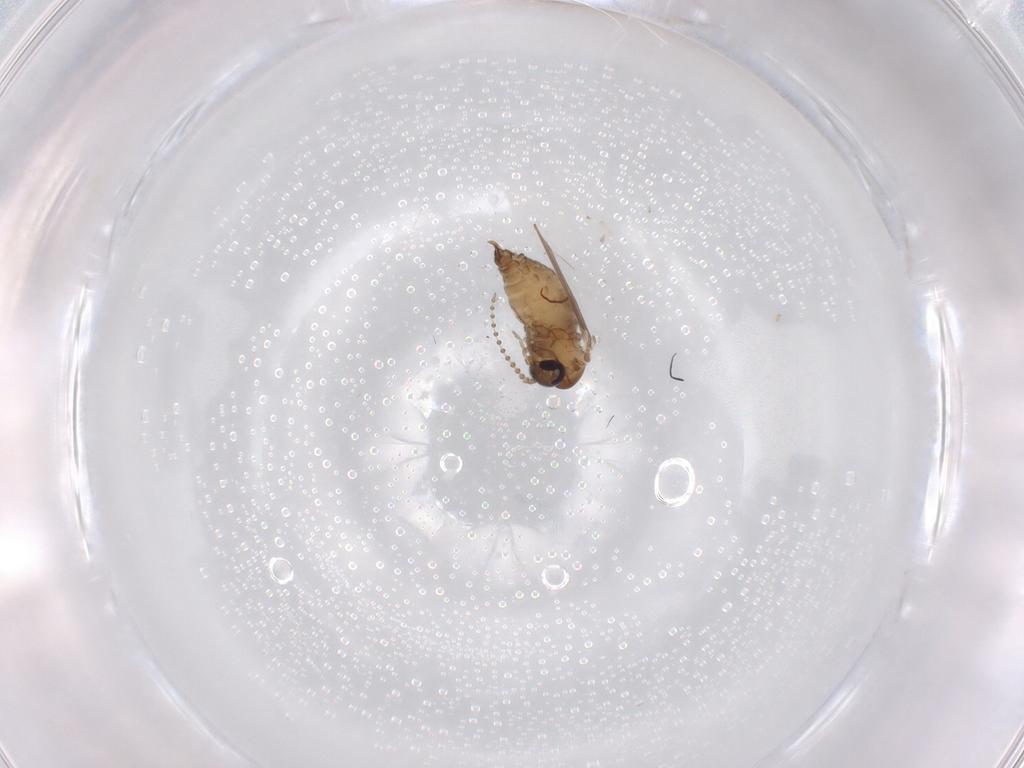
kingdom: Animalia
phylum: Arthropoda
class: Insecta
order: Diptera
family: Psychodidae
